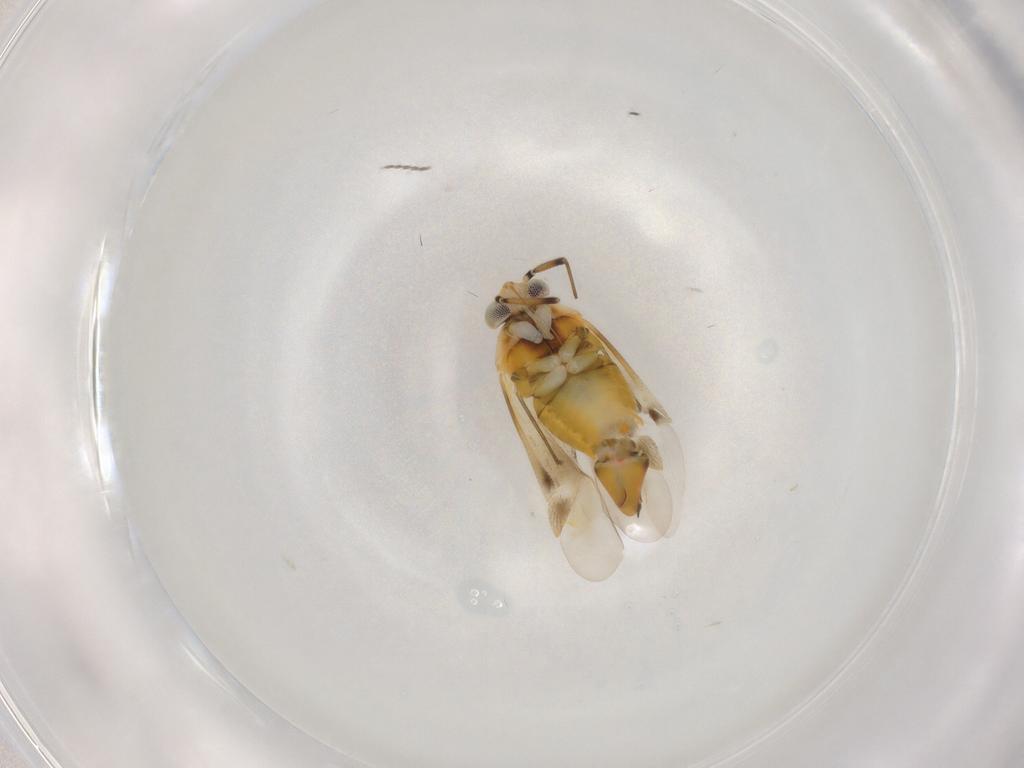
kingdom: Animalia
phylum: Arthropoda
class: Insecta
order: Hemiptera
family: Miridae
